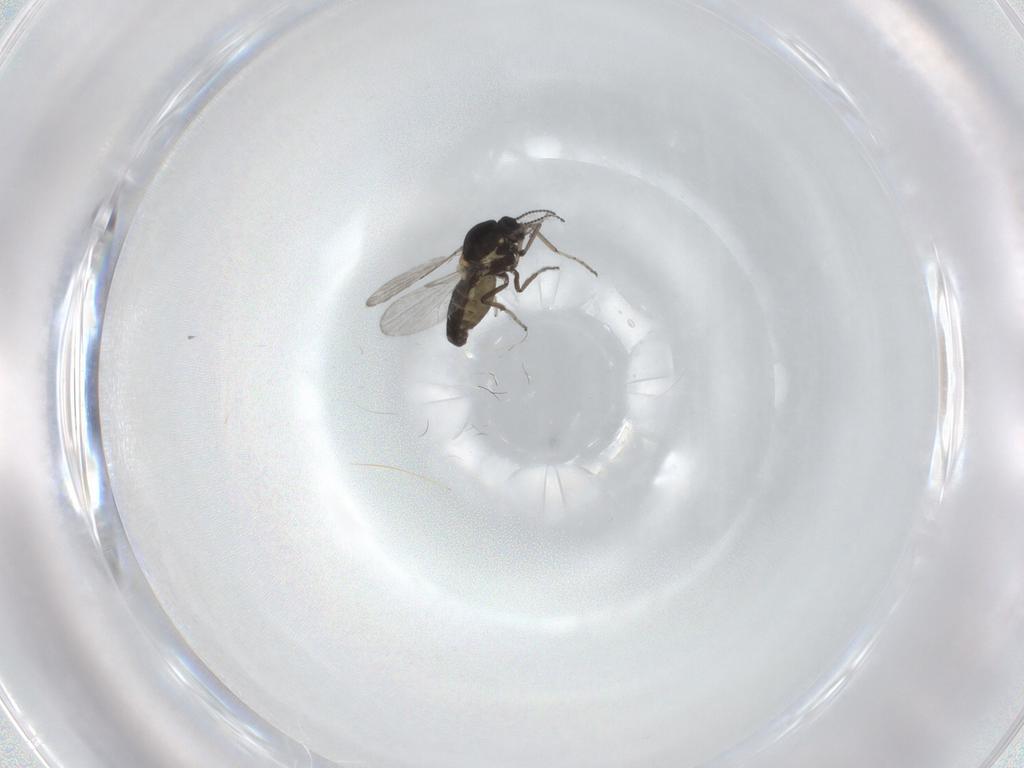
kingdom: Animalia
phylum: Arthropoda
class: Insecta
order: Diptera
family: Ceratopogonidae
